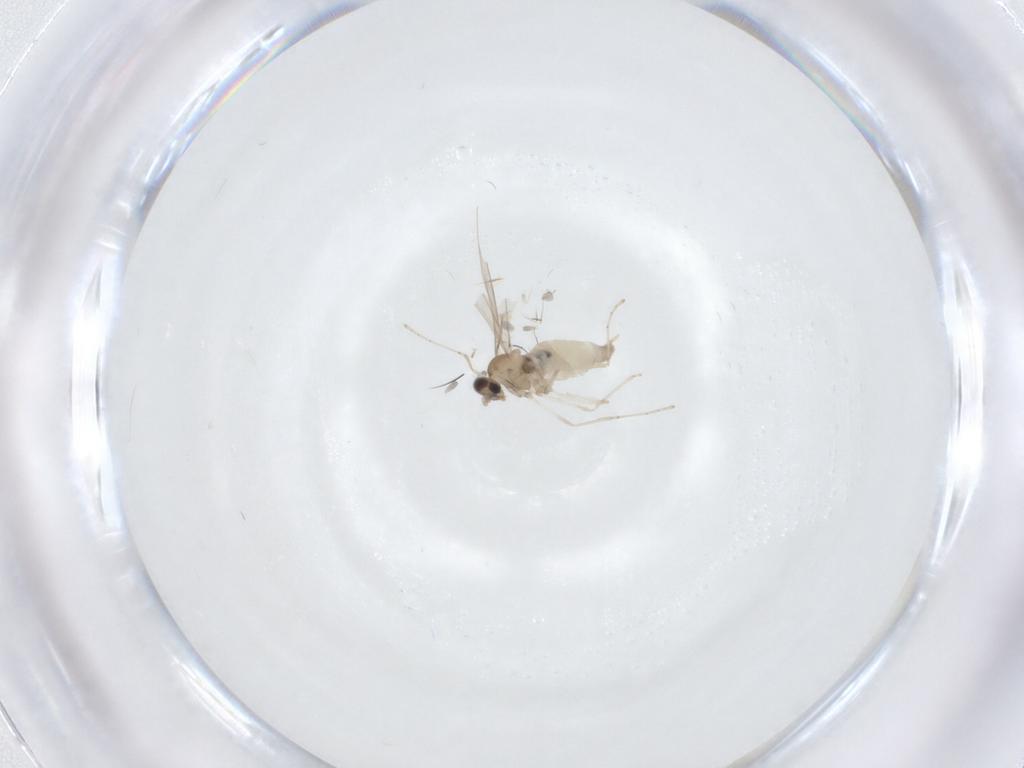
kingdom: Animalia
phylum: Arthropoda
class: Insecta
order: Diptera
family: Cecidomyiidae
